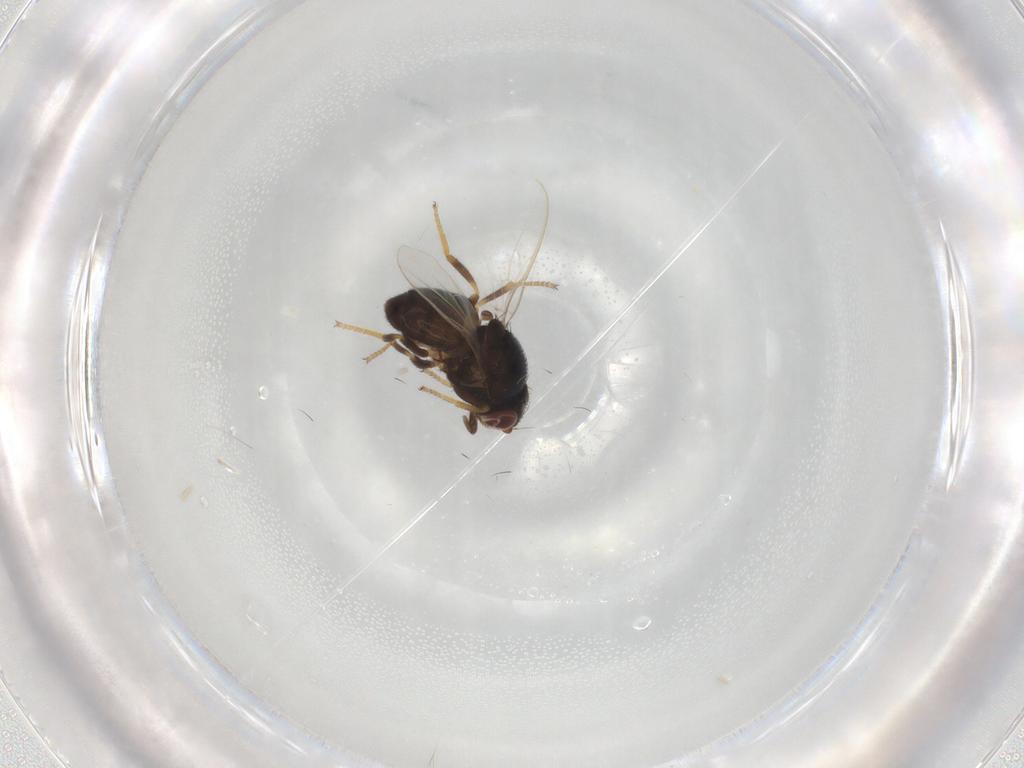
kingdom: Animalia
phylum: Arthropoda
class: Insecta
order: Diptera
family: Chloropidae
